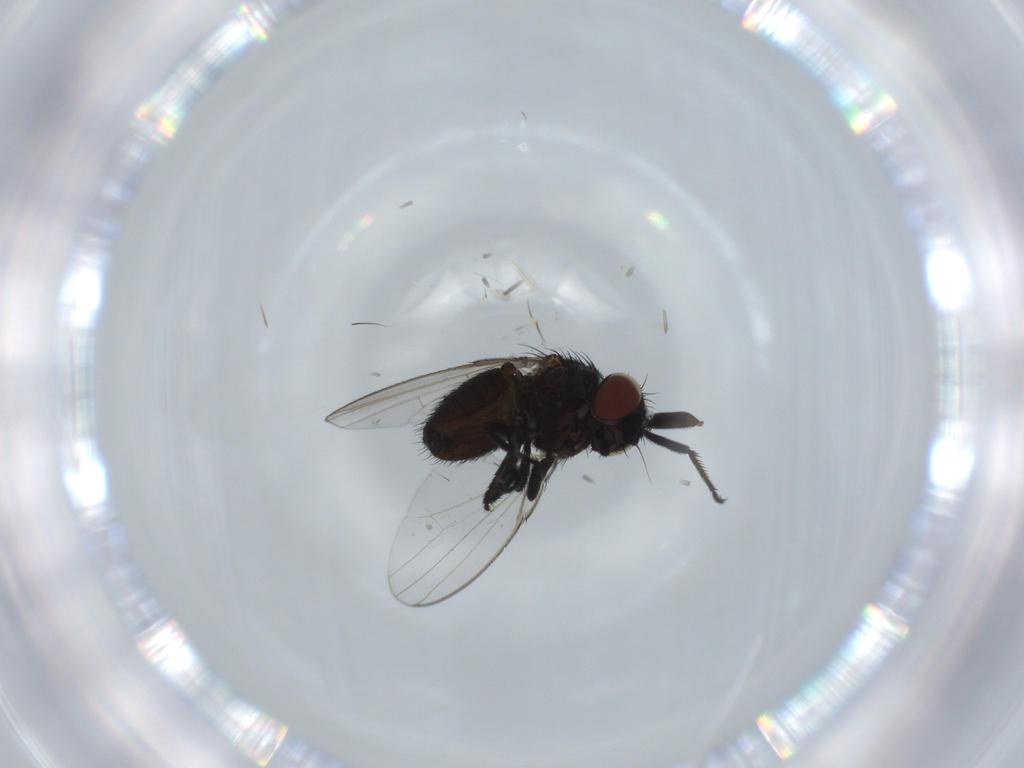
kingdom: Animalia
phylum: Arthropoda
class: Insecta
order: Diptera
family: Milichiidae
